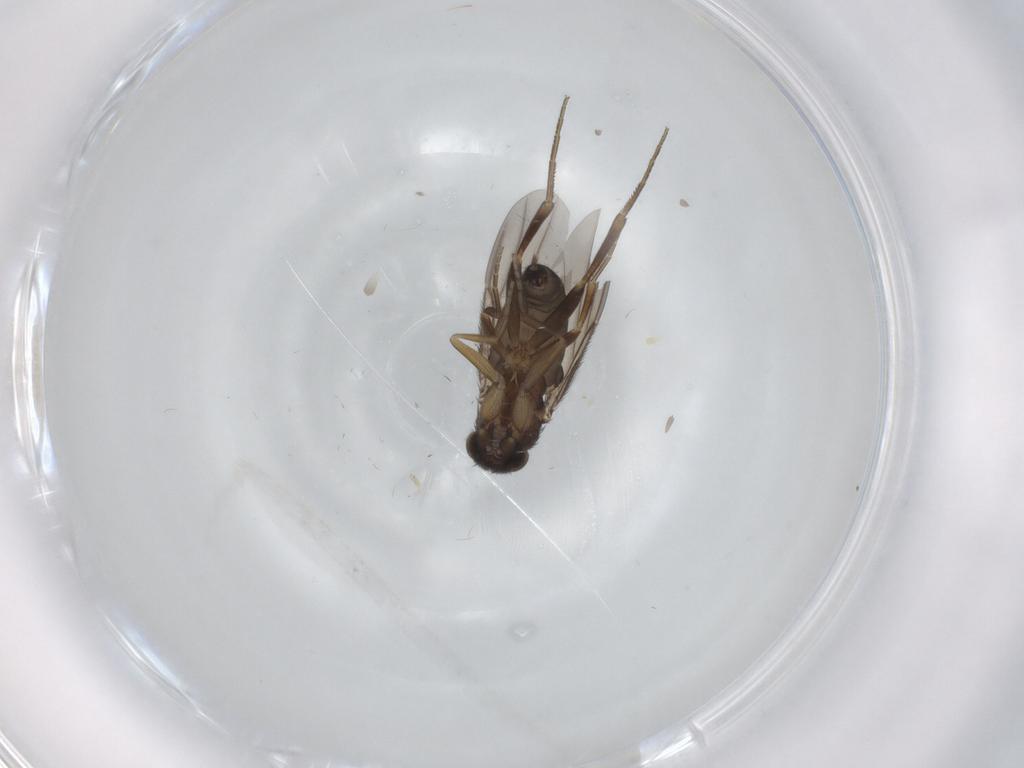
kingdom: Animalia
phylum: Arthropoda
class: Insecta
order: Diptera
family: Phoridae
